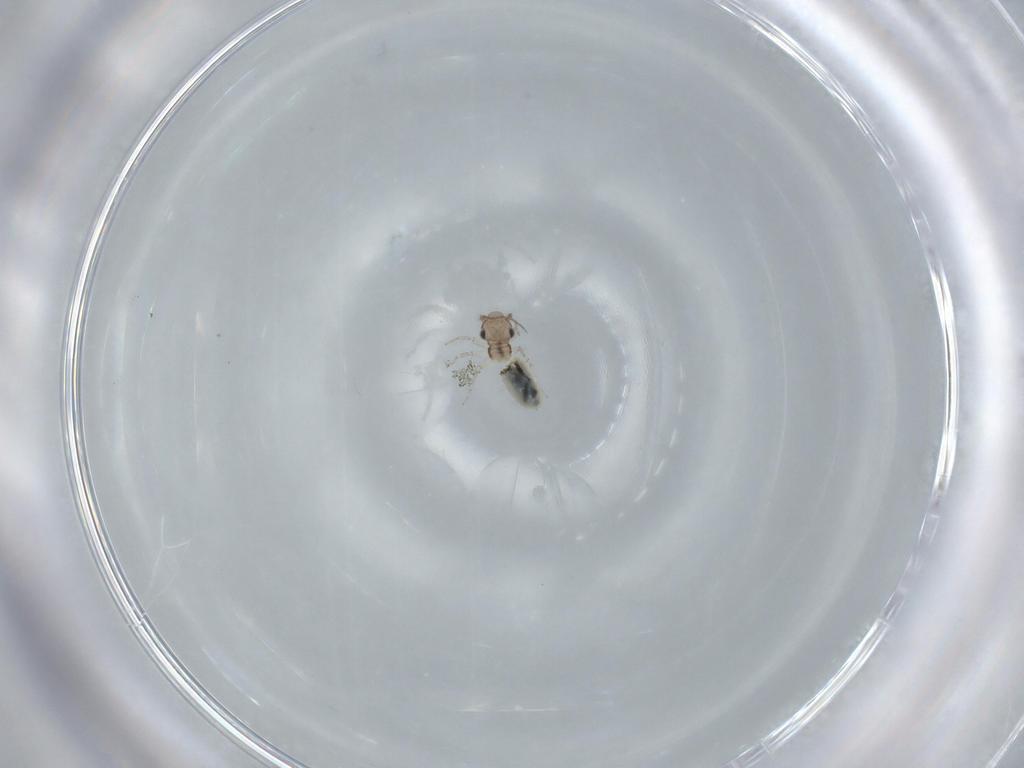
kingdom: Animalia
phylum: Arthropoda
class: Insecta
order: Psocodea
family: Lepidopsocidae
